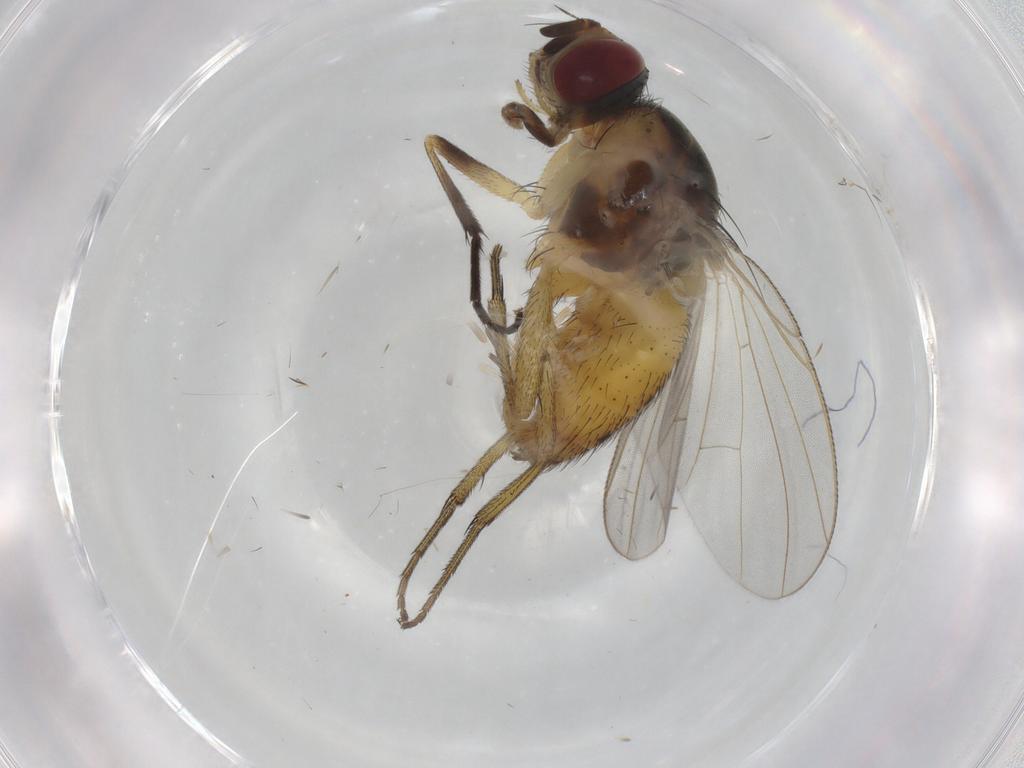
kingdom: Animalia
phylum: Arthropoda
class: Insecta
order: Diptera
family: Muscidae
